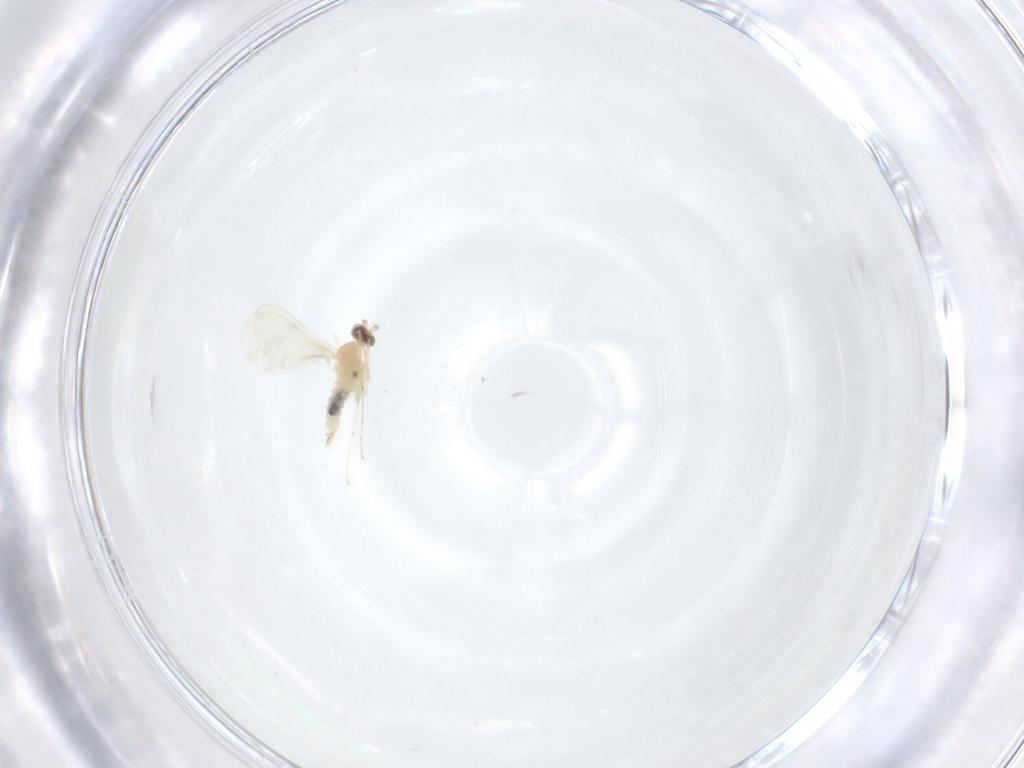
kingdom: Animalia
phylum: Arthropoda
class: Insecta
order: Diptera
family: Cecidomyiidae
